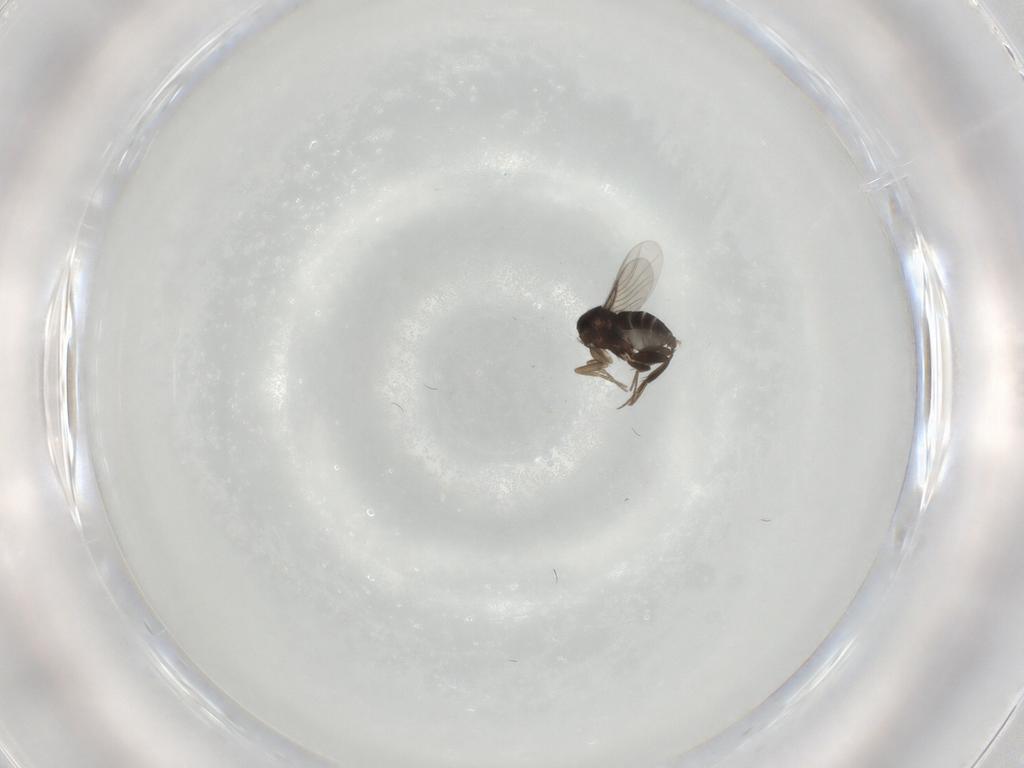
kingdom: Animalia
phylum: Arthropoda
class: Insecta
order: Diptera
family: Phoridae
